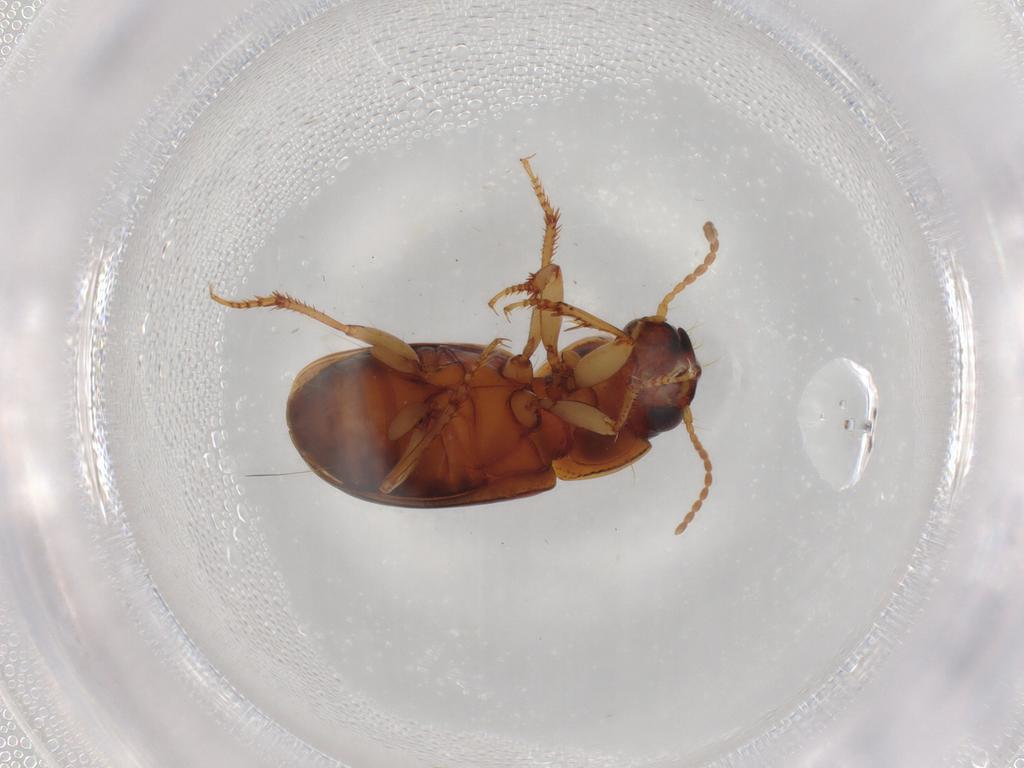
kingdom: Animalia
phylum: Arthropoda
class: Insecta
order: Coleoptera
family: Carabidae
